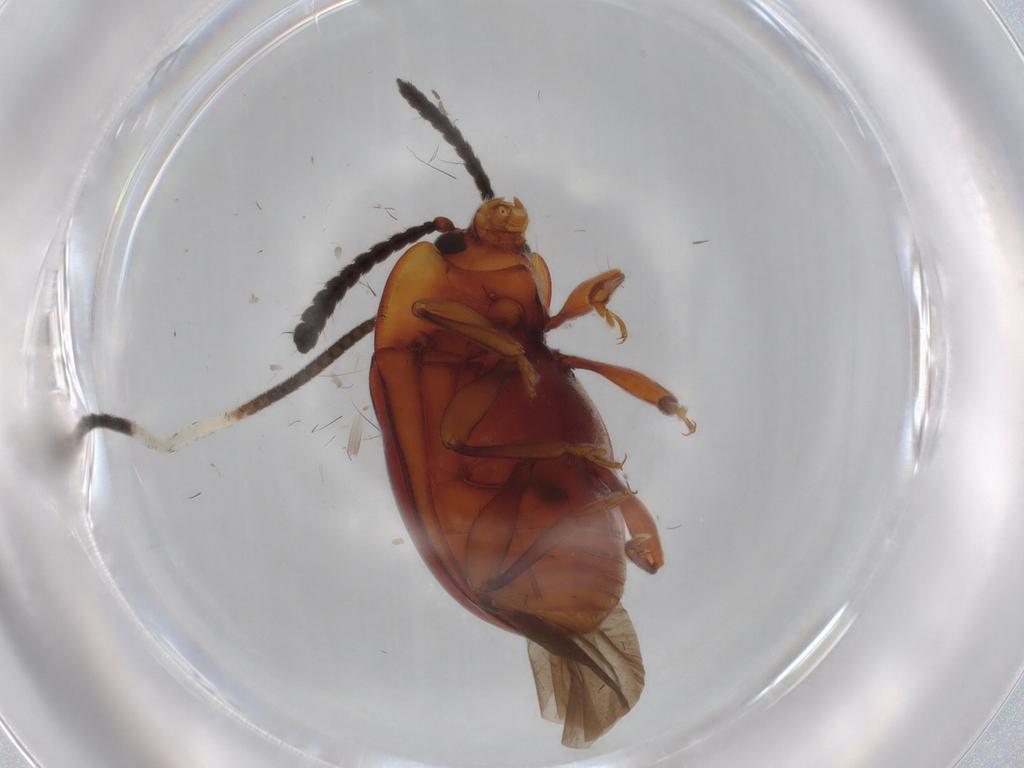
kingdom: Animalia
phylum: Arthropoda
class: Insecta
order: Coleoptera
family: Endomychidae
